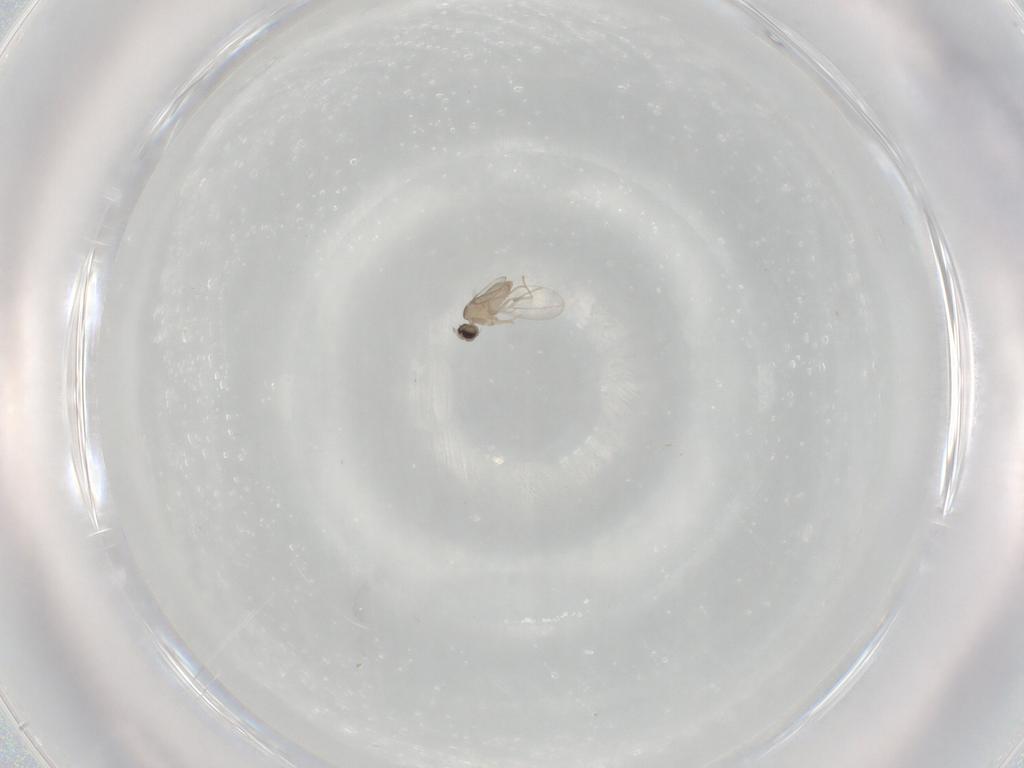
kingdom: Animalia
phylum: Arthropoda
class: Insecta
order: Diptera
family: Cecidomyiidae
